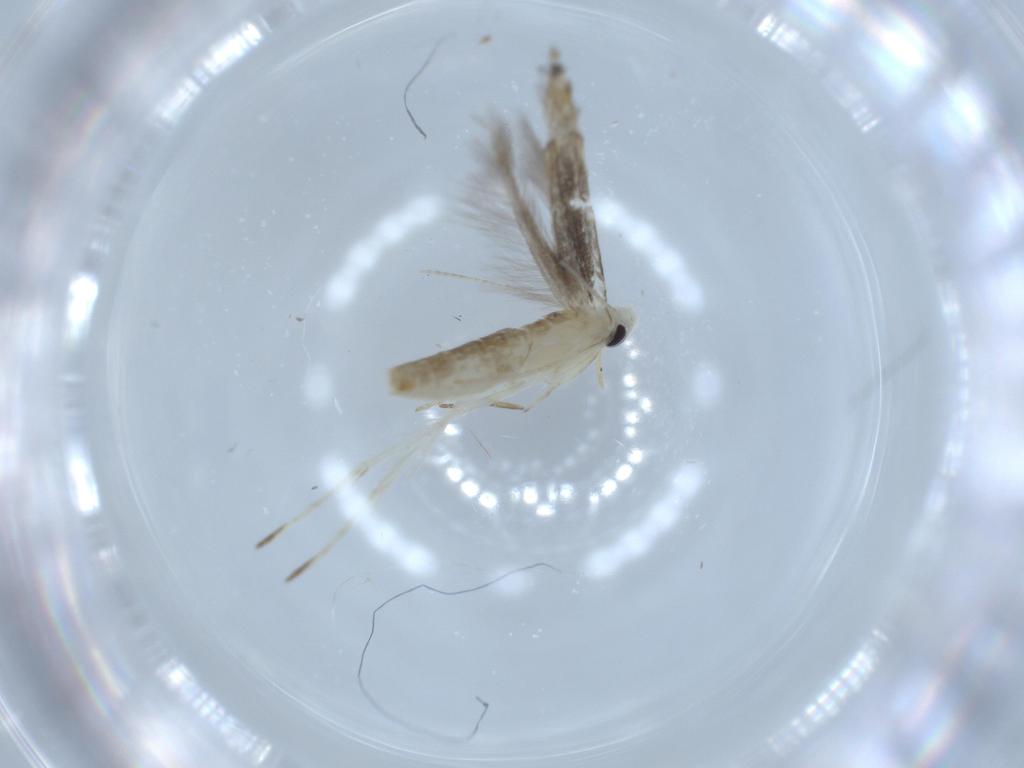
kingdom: Animalia
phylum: Arthropoda
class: Insecta
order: Lepidoptera
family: Nepticulidae
